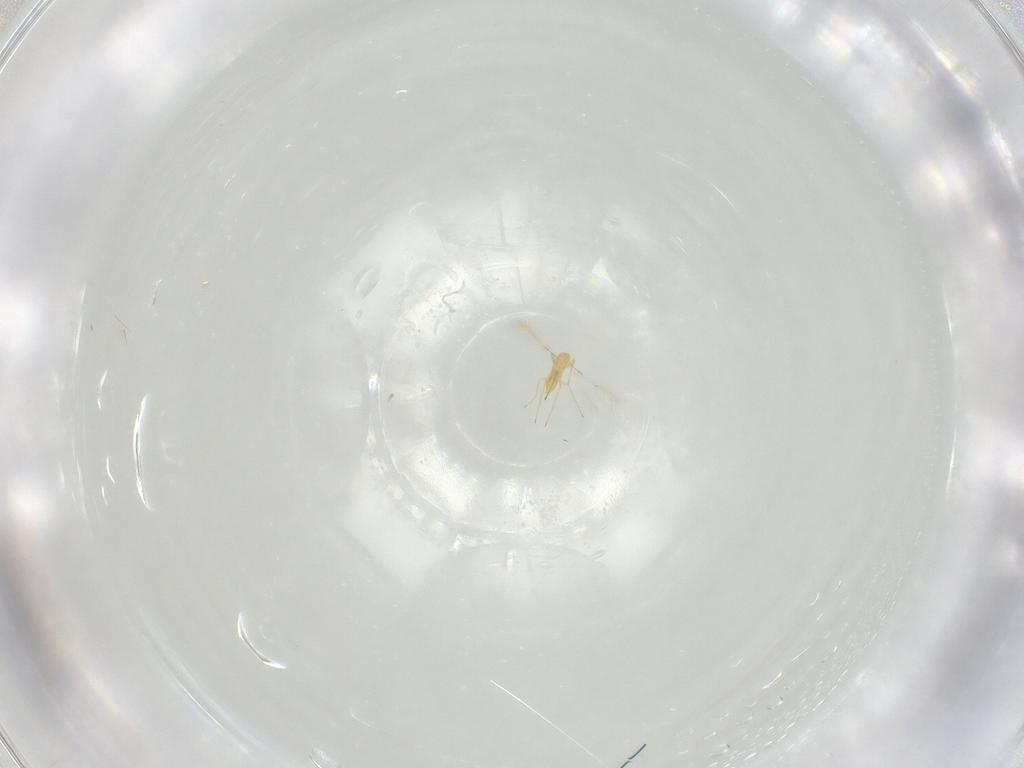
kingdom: Animalia
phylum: Arthropoda
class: Insecta
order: Hymenoptera
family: Mymaridae
